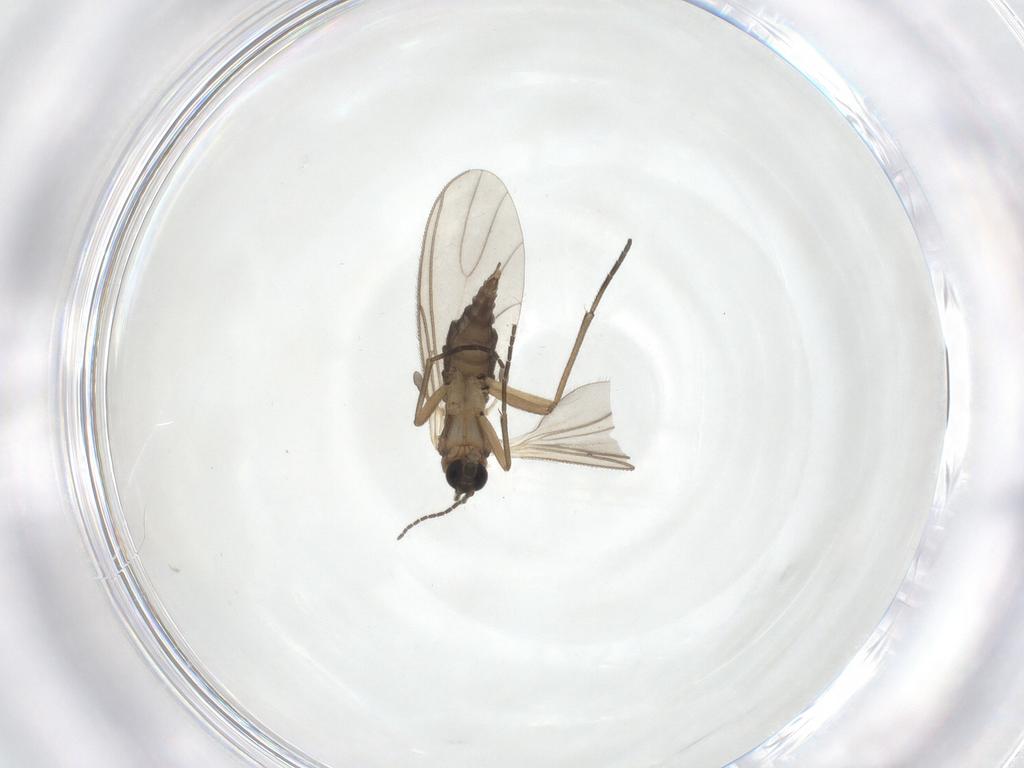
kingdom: Animalia
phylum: Arthropoda
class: Insecta
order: Diptera
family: Sciaridae
